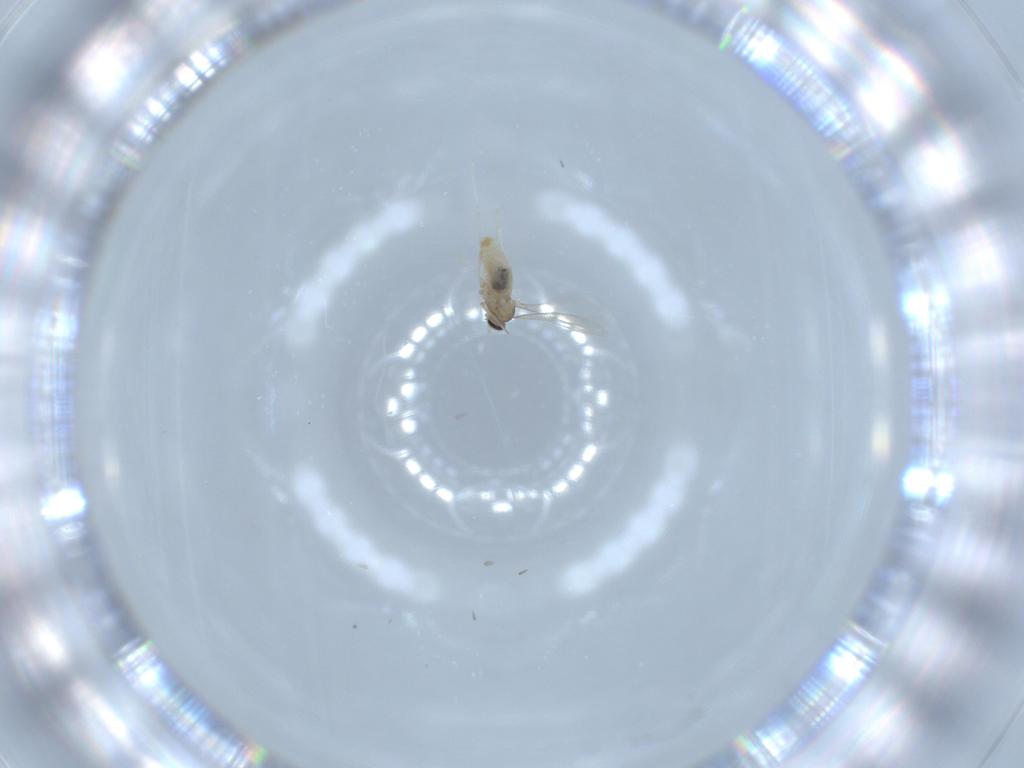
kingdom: Animalia
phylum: Arthropoda
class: Insecta
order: Diptera
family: Cecidomyiidae
